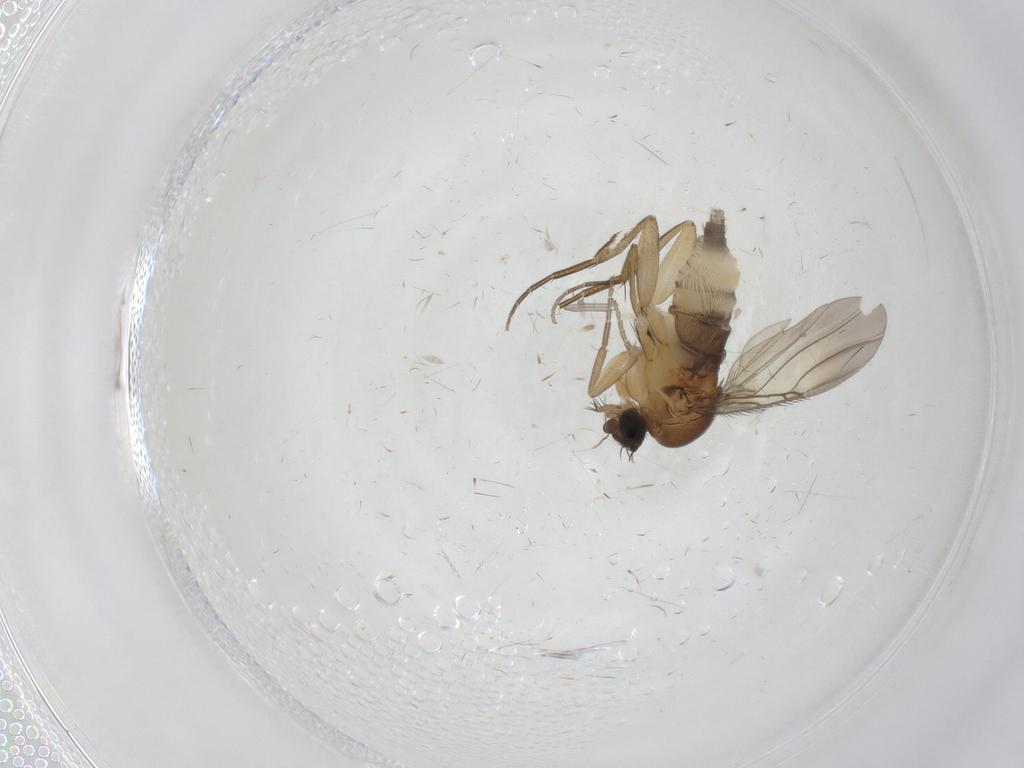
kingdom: Animalia
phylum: Arthropoda
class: Insecta
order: Diptera
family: Phoridae
